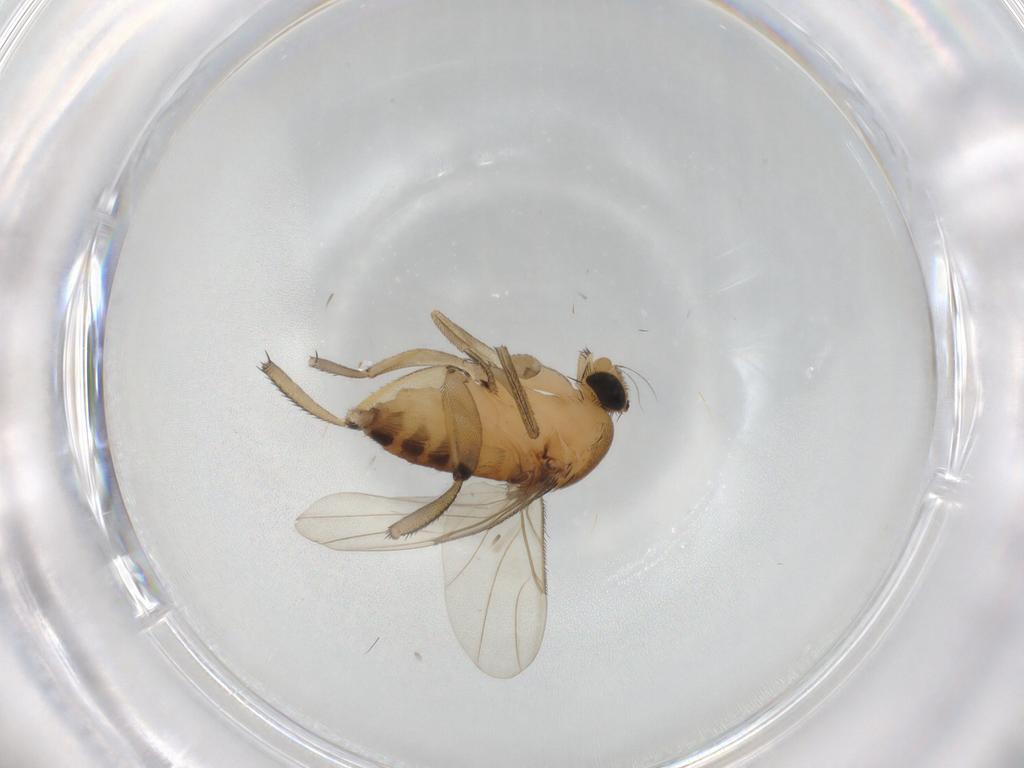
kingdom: Animalia
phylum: Arthropoda
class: Insecta
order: Diptera
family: Phoridae
